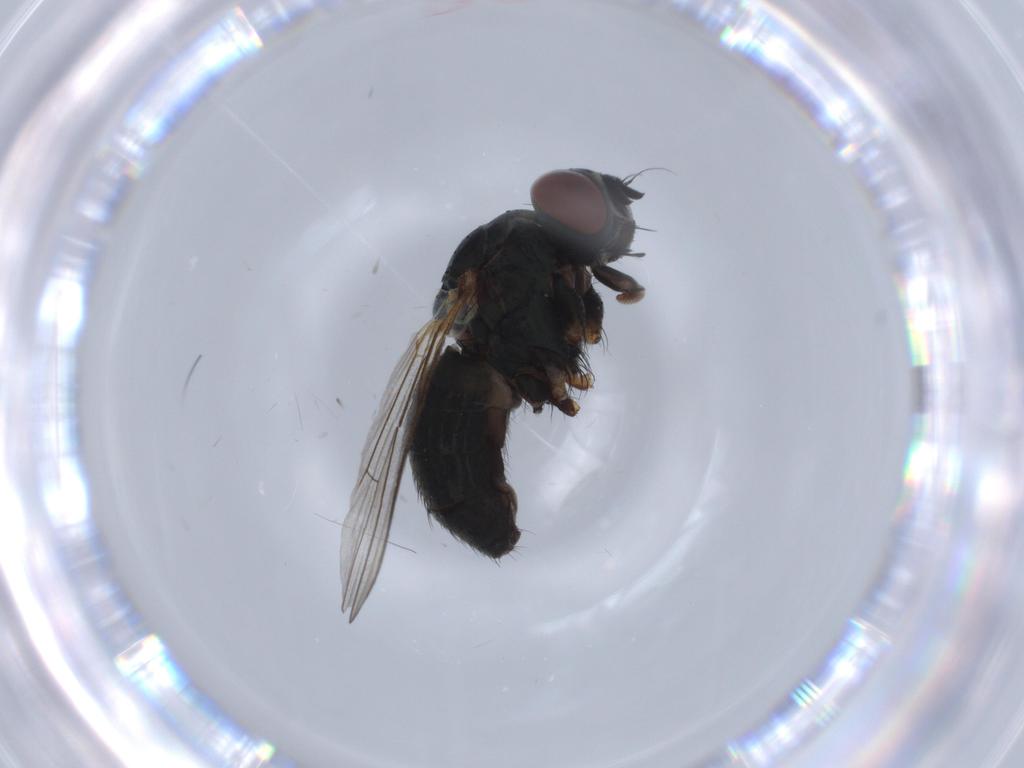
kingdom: Animalia
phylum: Arthropoda
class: Insecta
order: Diptera
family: Muscidae
